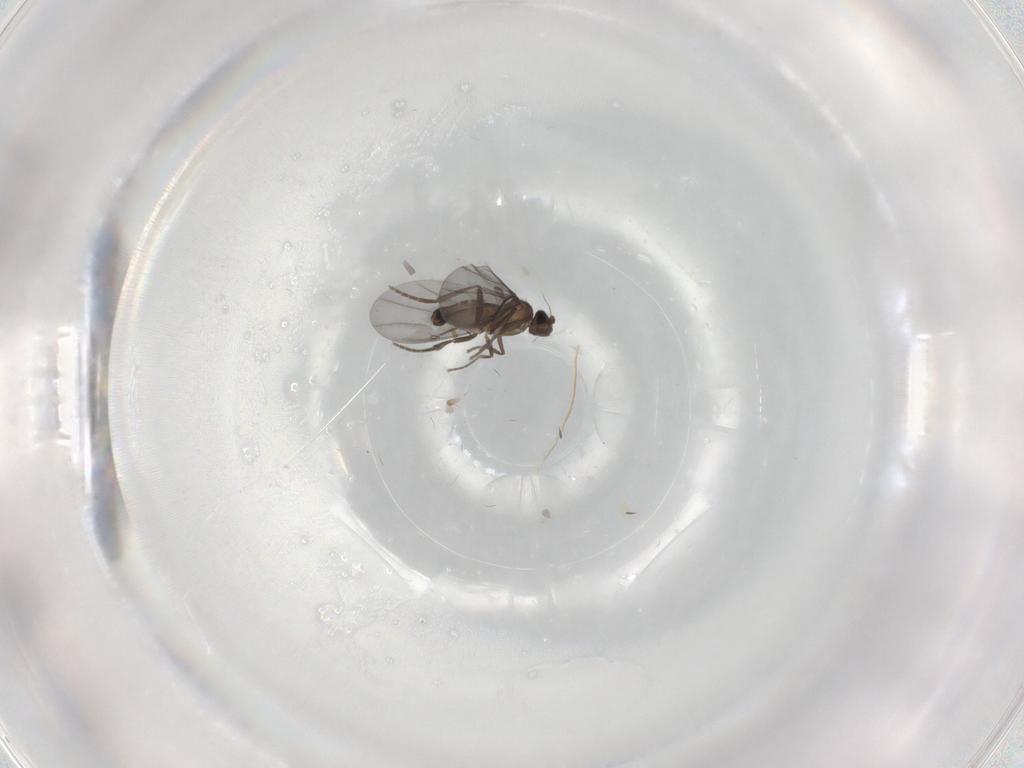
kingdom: Animalia
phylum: Arthropoda
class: Insecta
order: Diptera
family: Phoridae
